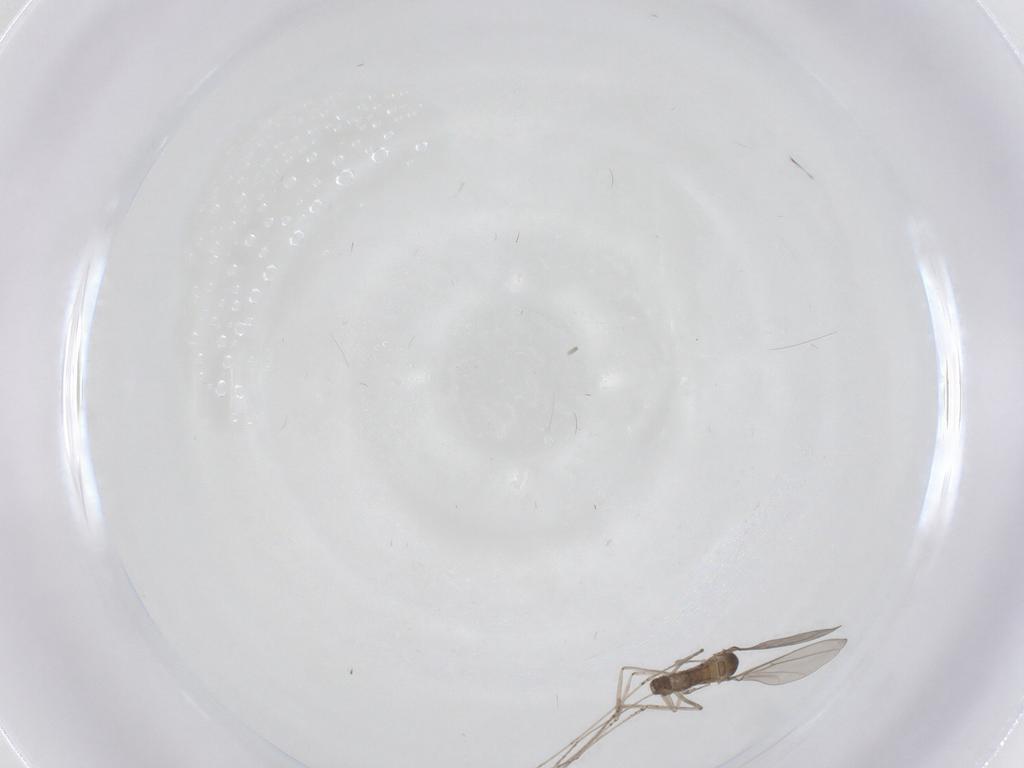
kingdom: Animalia
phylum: Arthropoda
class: Insecta
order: Diptera
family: Cecidomyiidae
